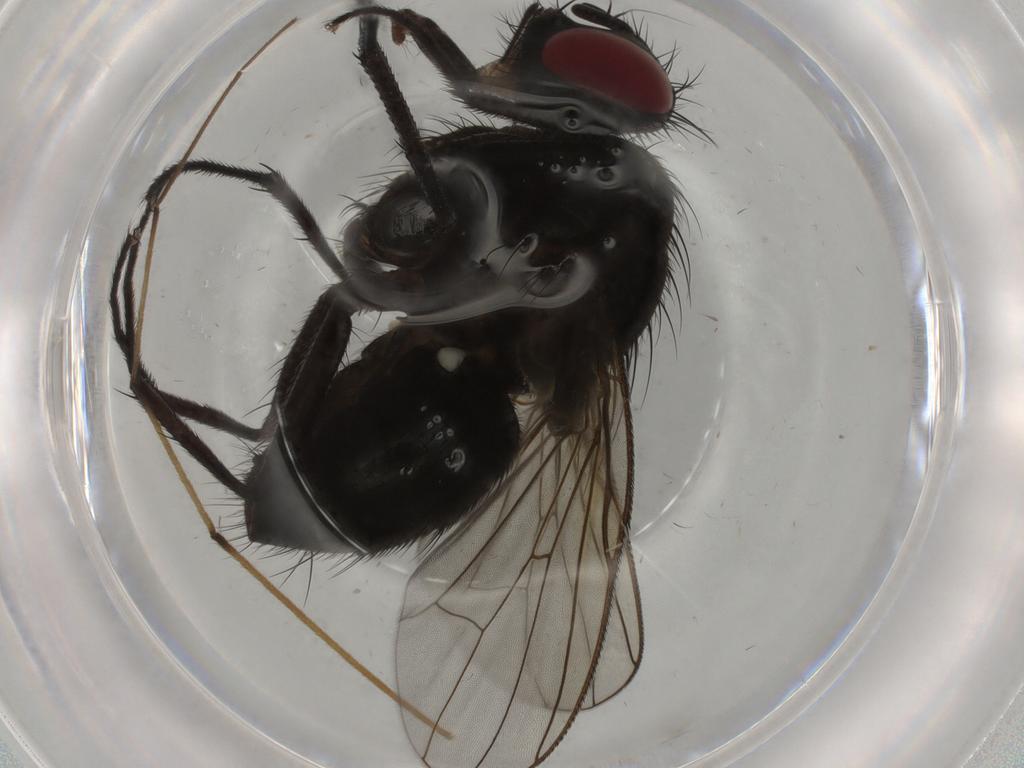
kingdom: Animalia
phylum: Arthropoda
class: Insecta
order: Diptera
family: Muscidae
